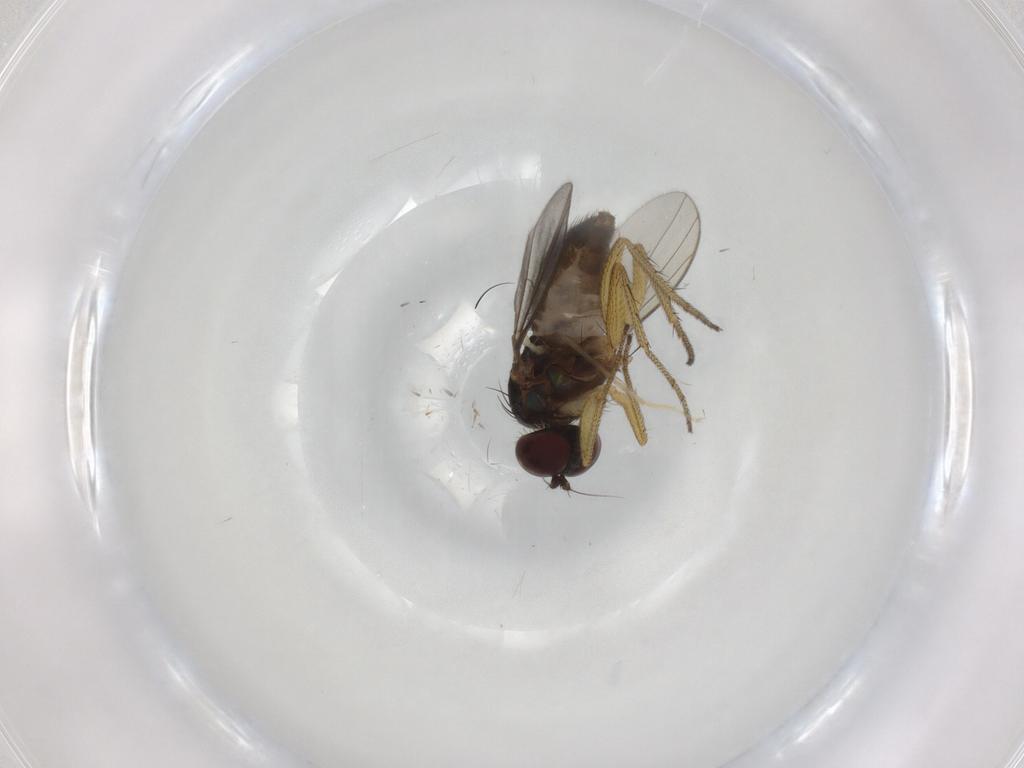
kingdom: Animalia
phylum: Arthropoda
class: Insecta
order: Diptera
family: Dolichopodidae
